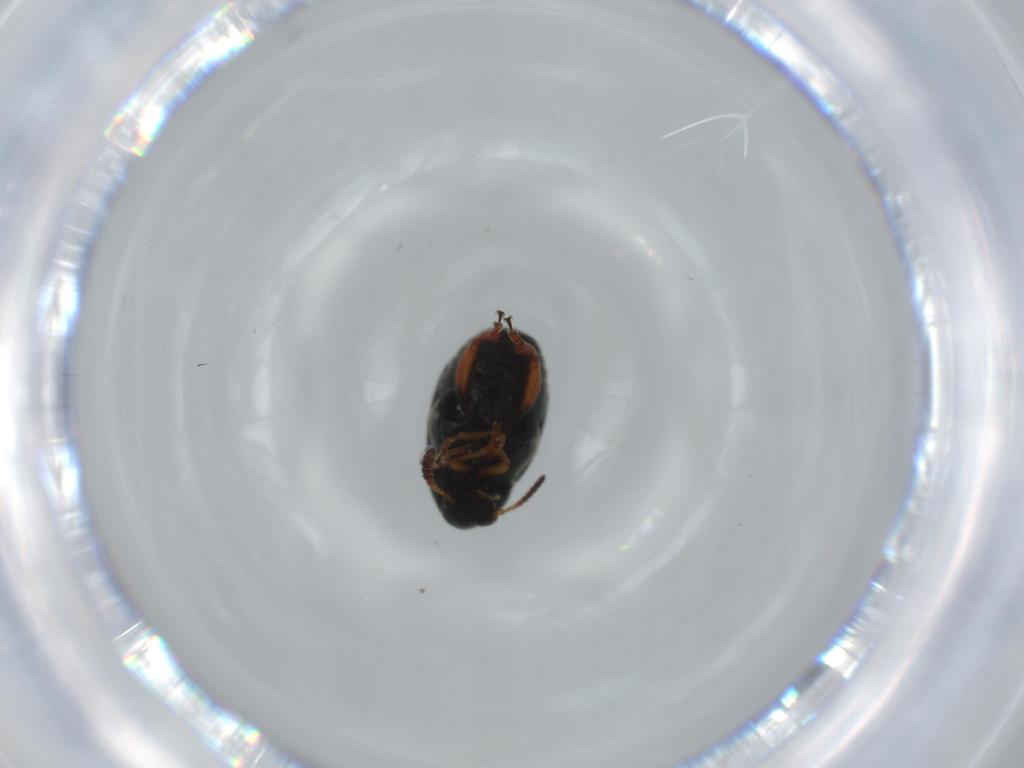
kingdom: Animalia
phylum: Arthropoda
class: Insecta
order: Coleoptera
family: Chrysomelidae
